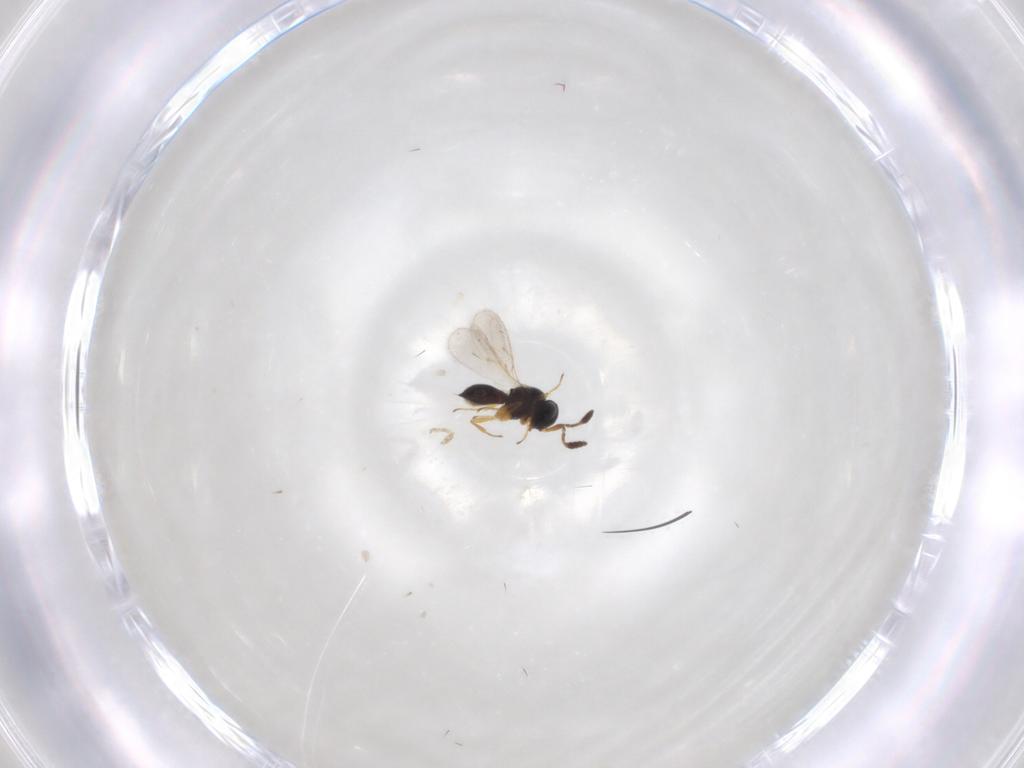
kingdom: Animalia
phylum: Arthropoda
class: Insecta
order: Hymenoptera
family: Scelionidae
